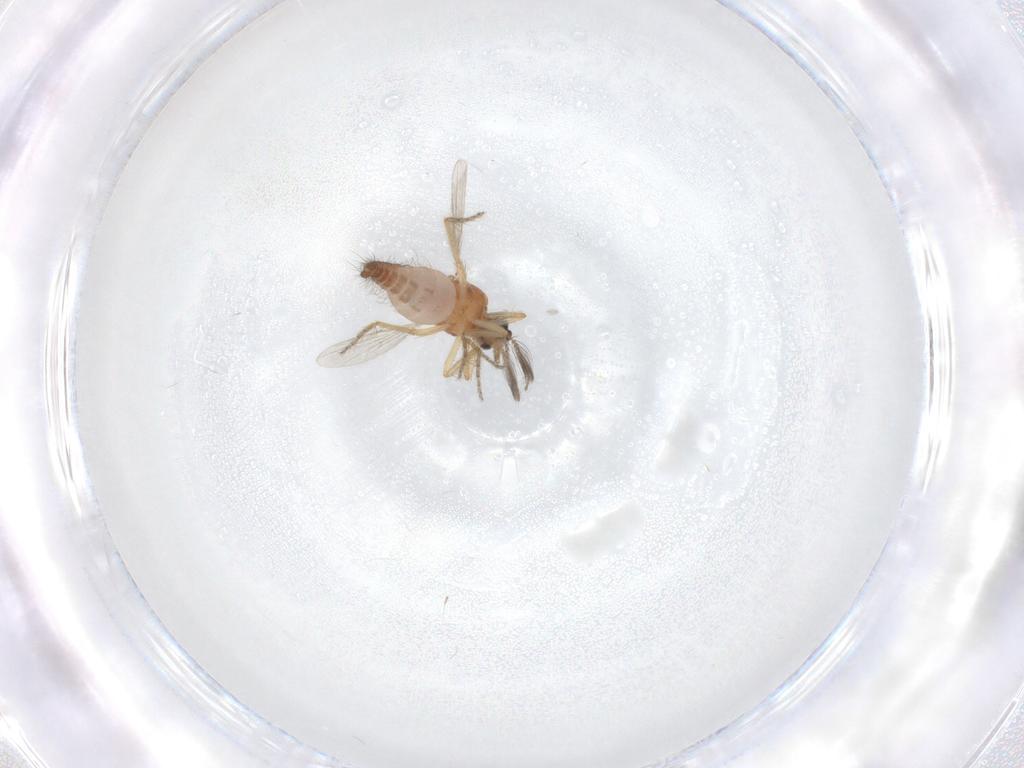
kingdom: Animalia
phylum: Arthropoda
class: Insecta
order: Diptera
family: Ceratopogonidae
